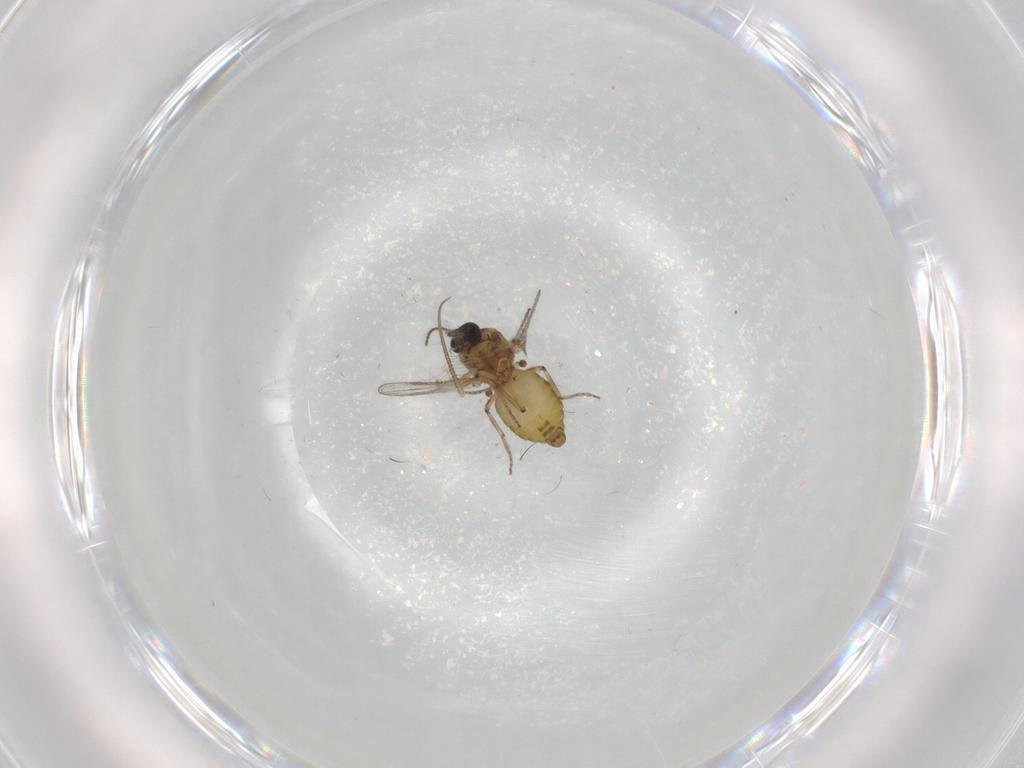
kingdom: Animalia
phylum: Arthropoda
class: Insecta
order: Diptera
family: Ceratopogonidae
